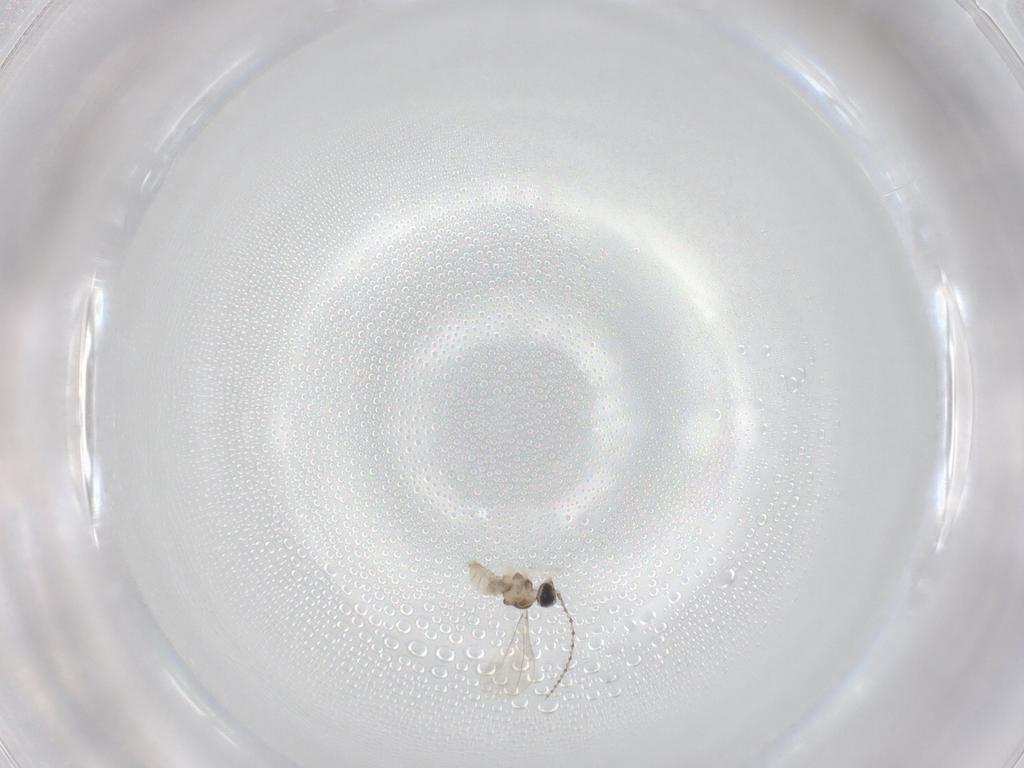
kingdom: Animalia
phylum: Arthropoda
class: Insecta
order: Diptera
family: Cecidomyiidae
